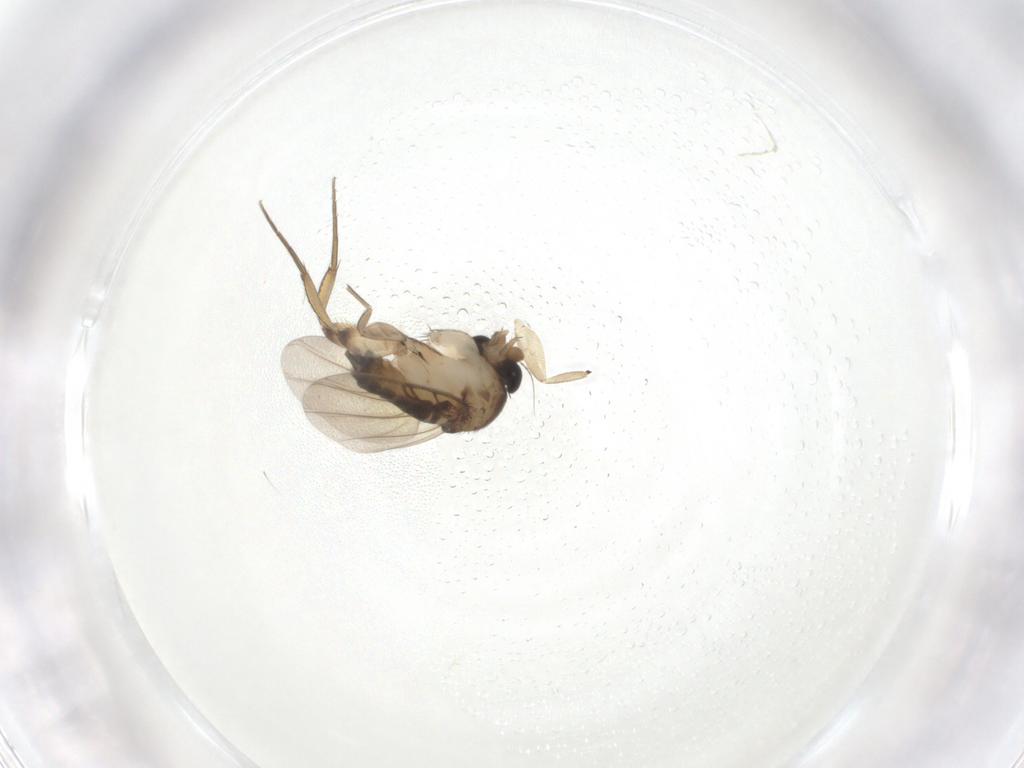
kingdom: Animalia
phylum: Arthropoda
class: Insecta
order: Diptera
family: Phoridae
